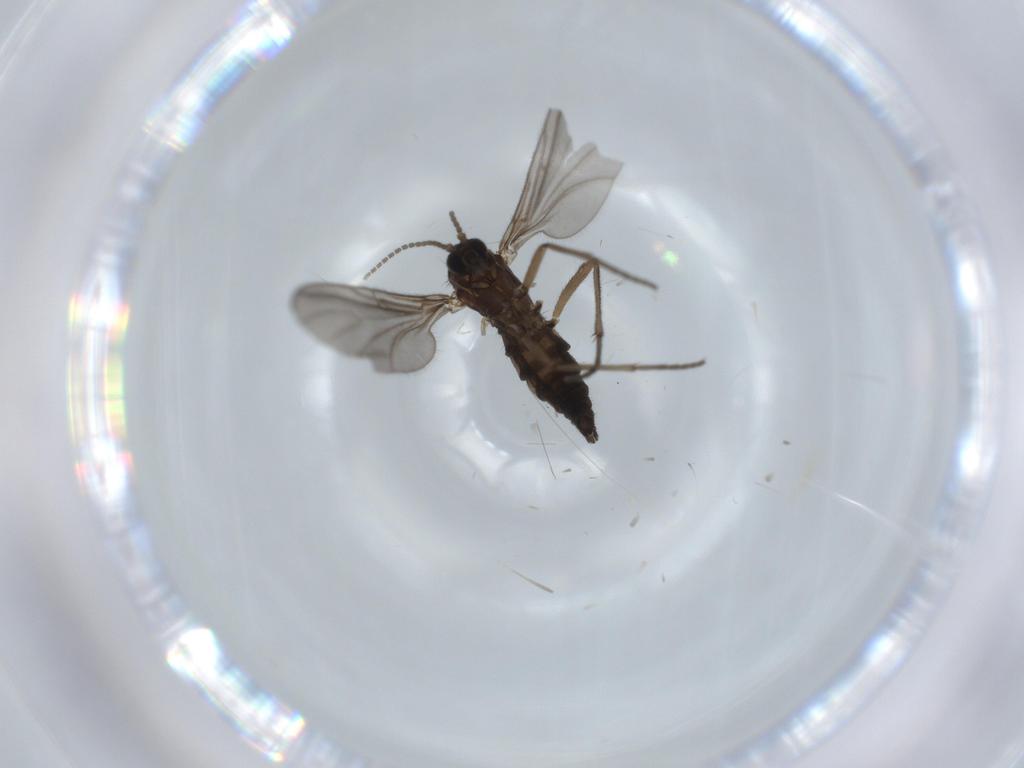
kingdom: Animalia
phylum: Arthropoda
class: Insecta
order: Diptera
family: Sciaridae
